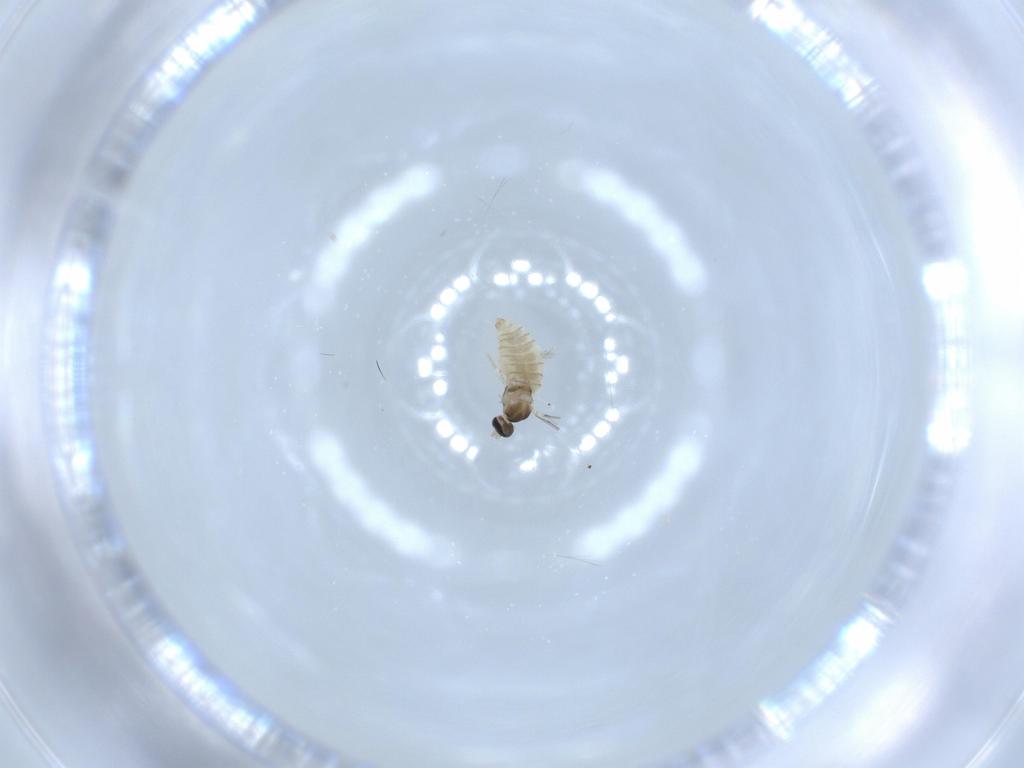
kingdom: Animalia
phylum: Arthropoda
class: Insecta
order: Diptera
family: Cecidomyiidae
